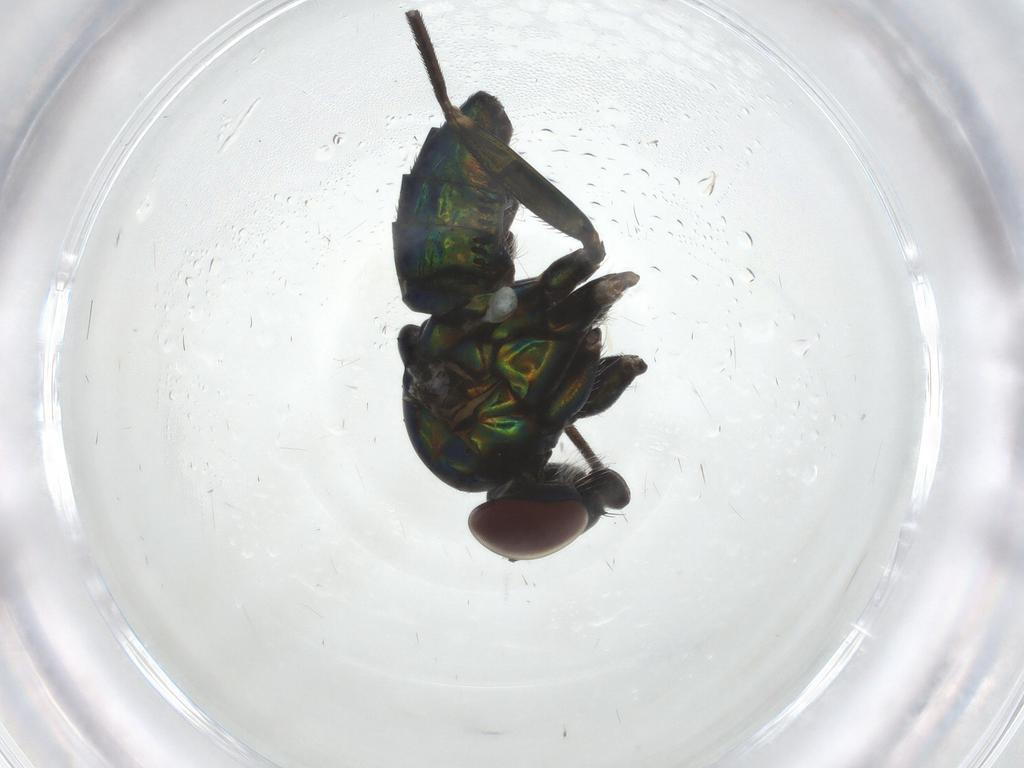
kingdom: Animalia
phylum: Arthropoda
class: Insecta
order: Diptera
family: Dolichopodidae
